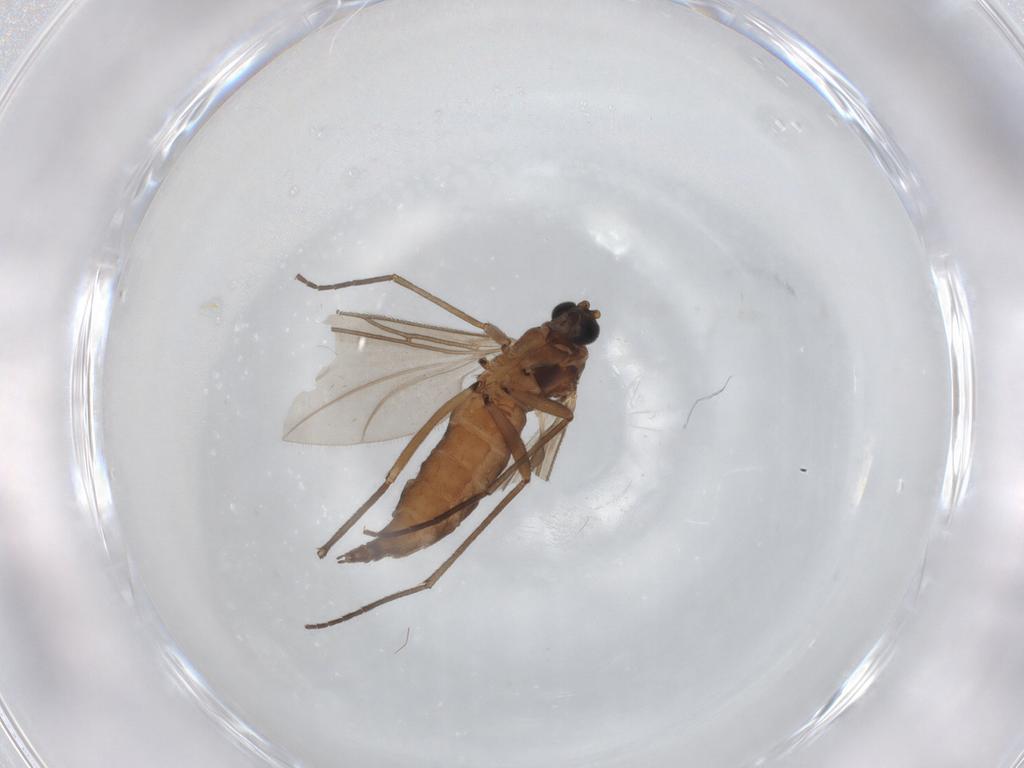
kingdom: Animalia
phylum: Arthropoda
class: Insecta
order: Diptera
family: Sciaridae
